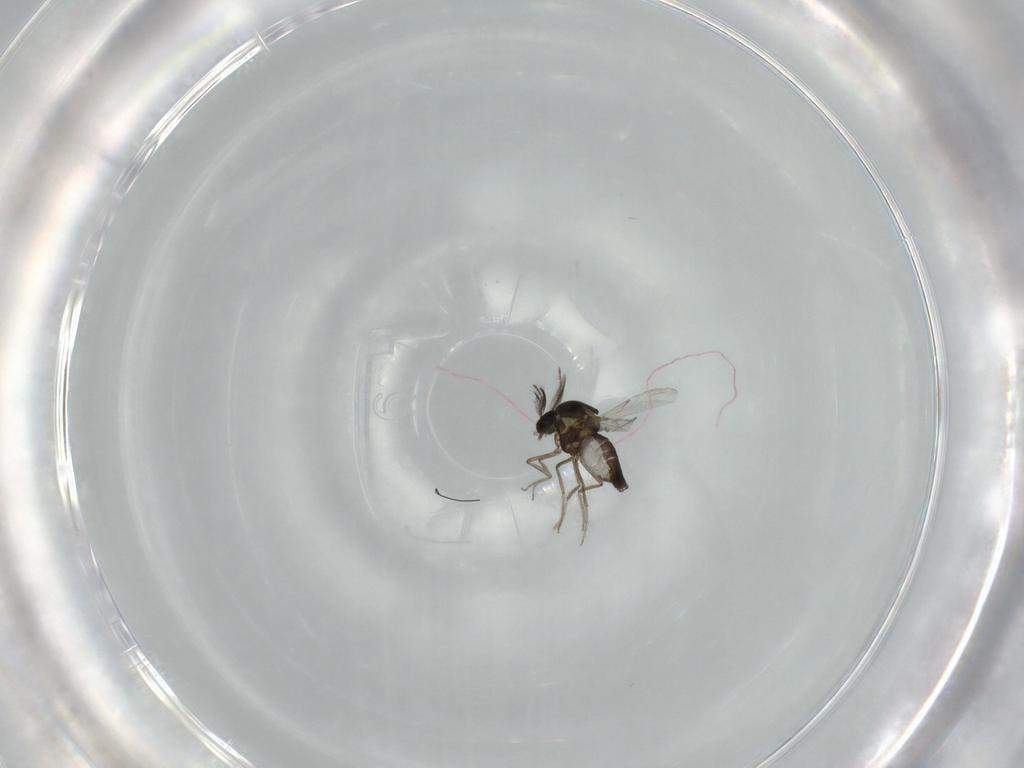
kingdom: Animalia
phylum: Arthropoda
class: Insecta
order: Diptera
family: Ceratopogonidae
